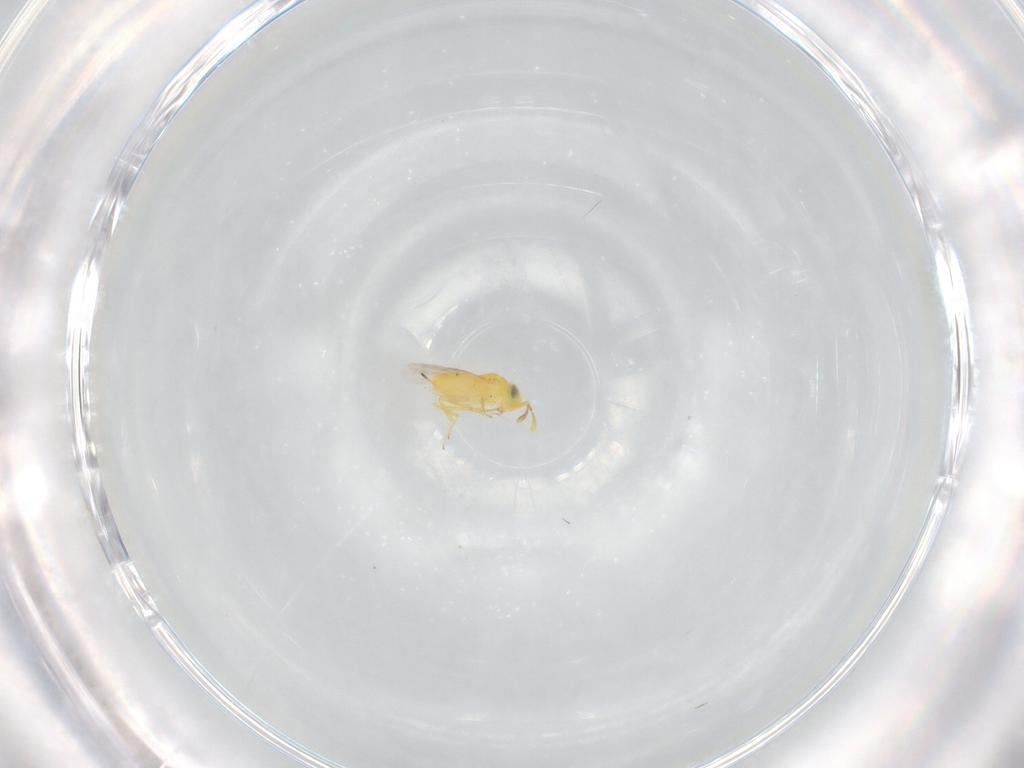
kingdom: Animalia
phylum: Arthropoda
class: Insecta
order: Hymenoptera
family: Encyrtidae
